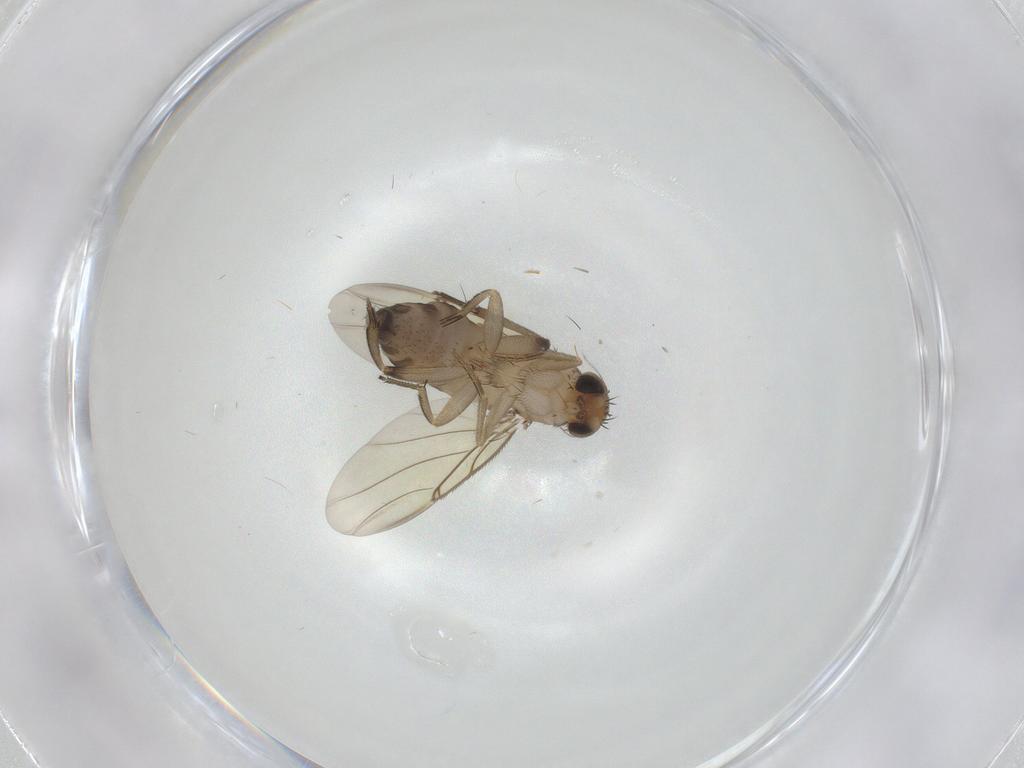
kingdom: Animalia
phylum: Arthropoda
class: Insecta
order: Diptera
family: Phoridae
